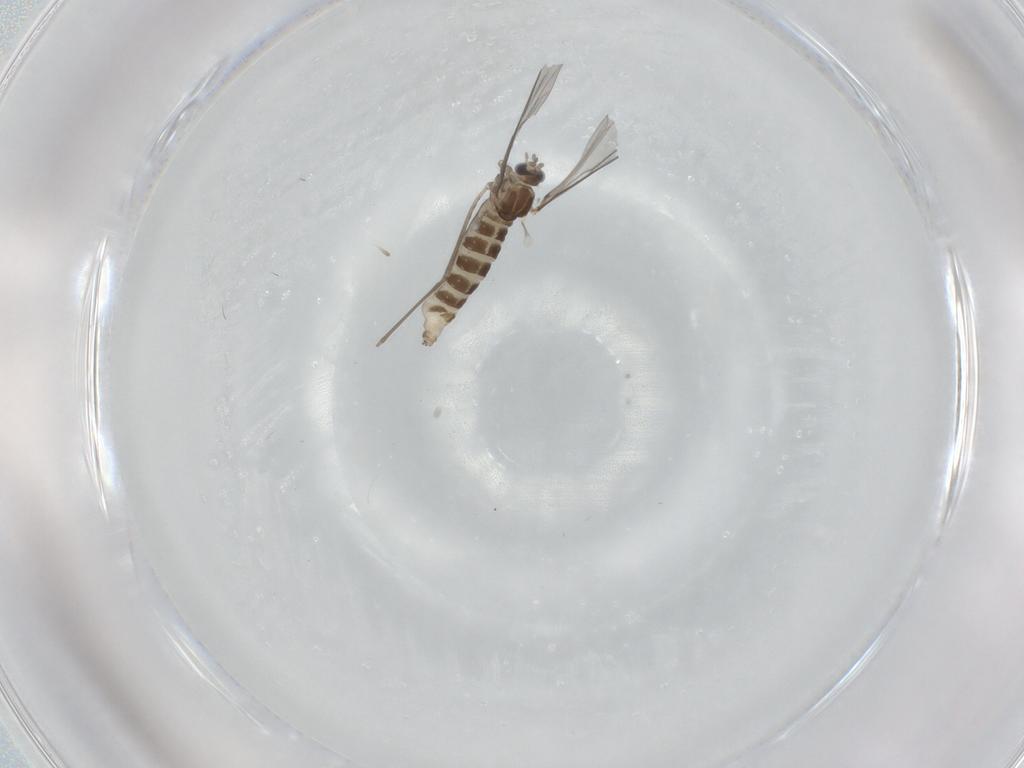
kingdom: Animalia
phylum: Arthropoda
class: Insecta
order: Diptera
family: Cecidomyiidae
